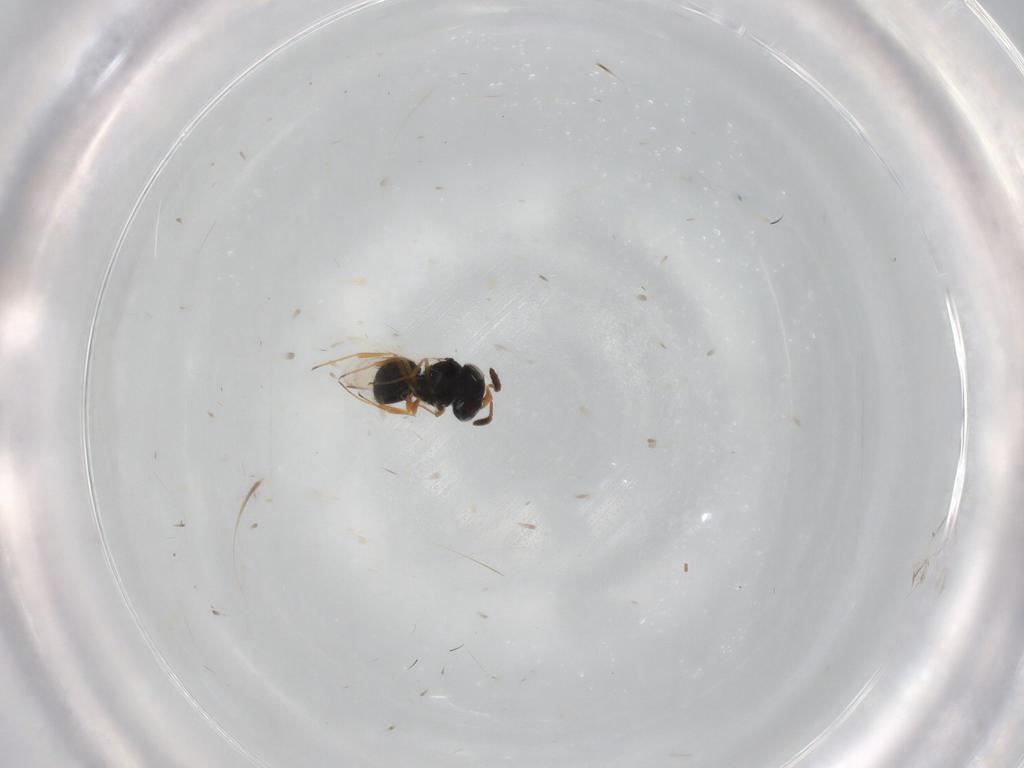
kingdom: Animalia
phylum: Arthropoda
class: Insecta
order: Hymenoptera
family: Scelionidae
